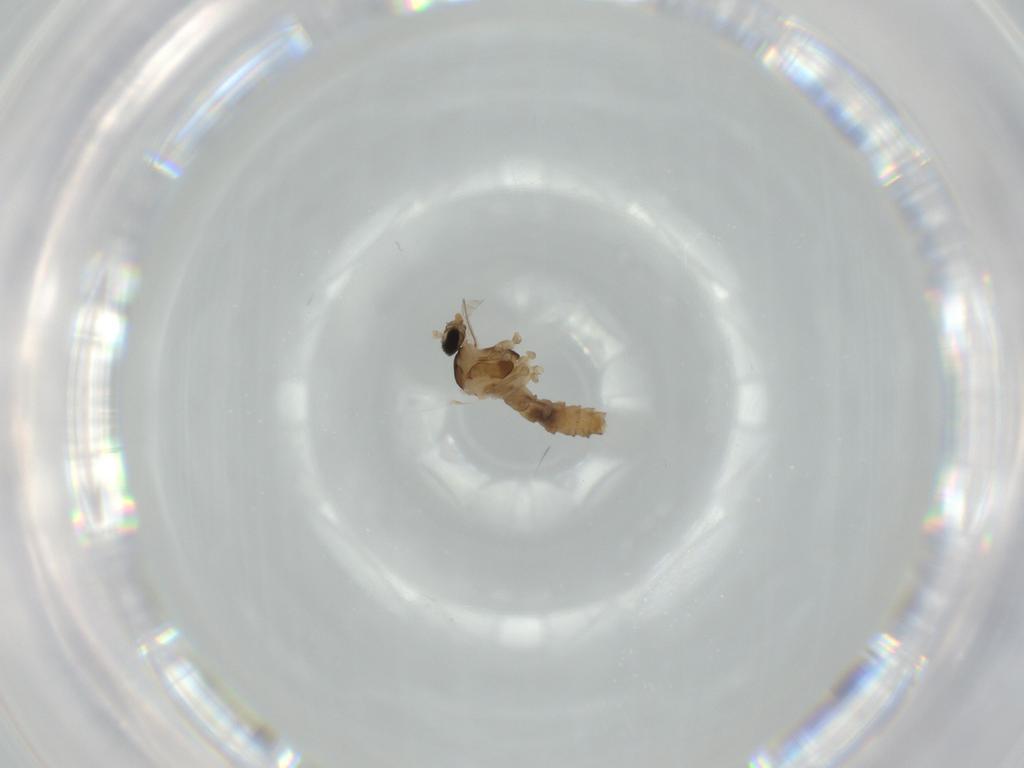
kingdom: Animalia
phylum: Arthropoda
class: Insecta
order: Diptera
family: Cecidomyiidae
